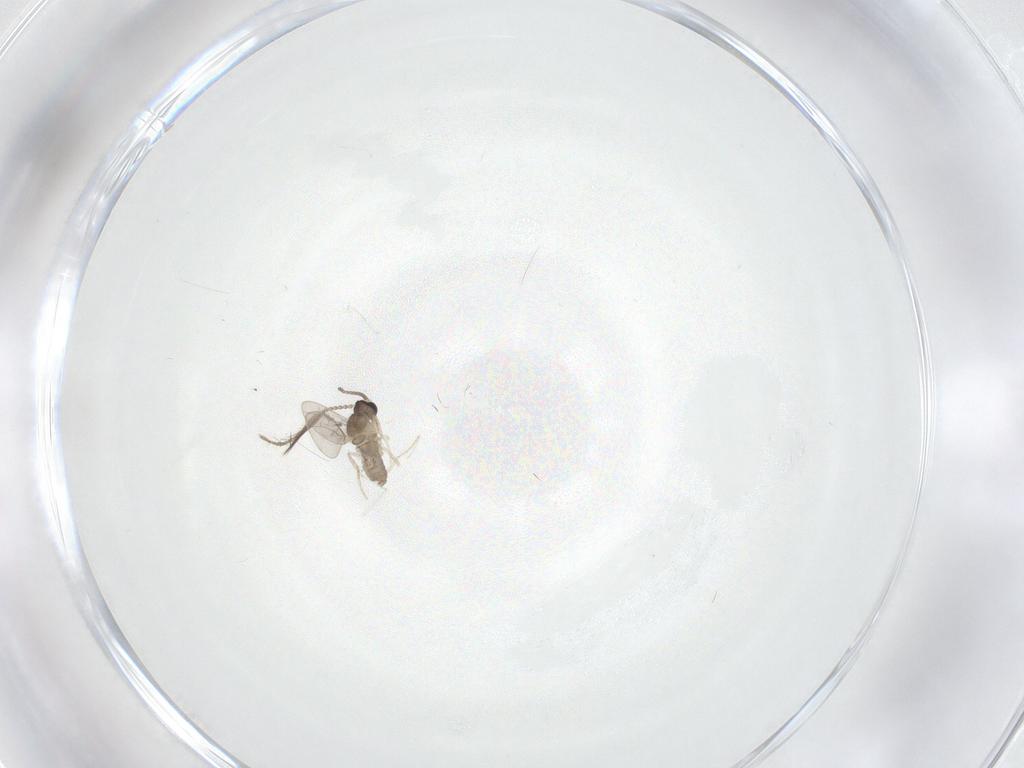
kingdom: Animalia
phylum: Arthropoda
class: Insecta
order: Diptera
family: Ceratopogonidae
